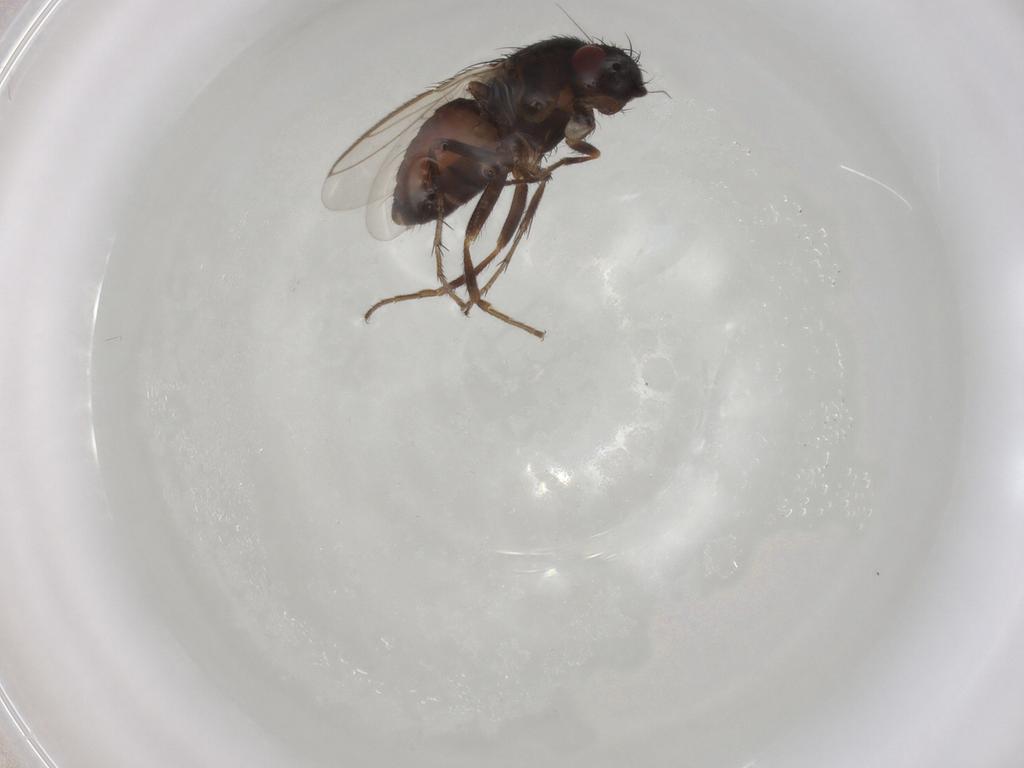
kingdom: Animalia
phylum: Arthropoda
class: Insecta
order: Diptera
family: Sphaeroceridae
